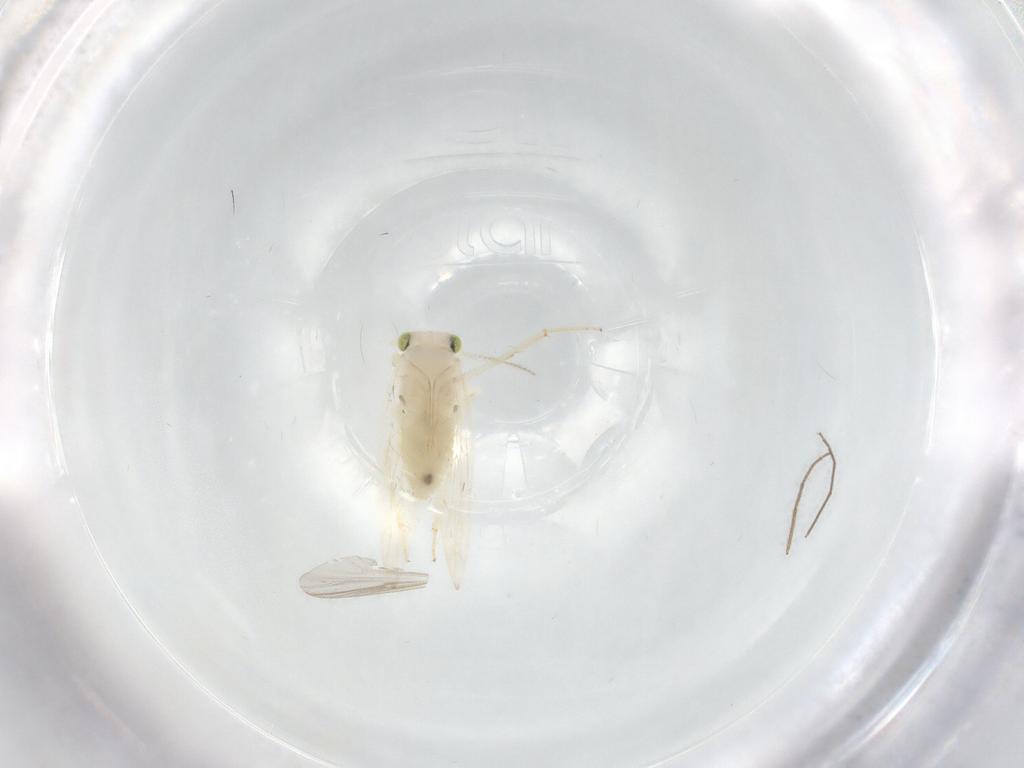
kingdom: Animalia
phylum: Arthropoda
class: Insecta
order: Psocodea
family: Lepidopsocidae
